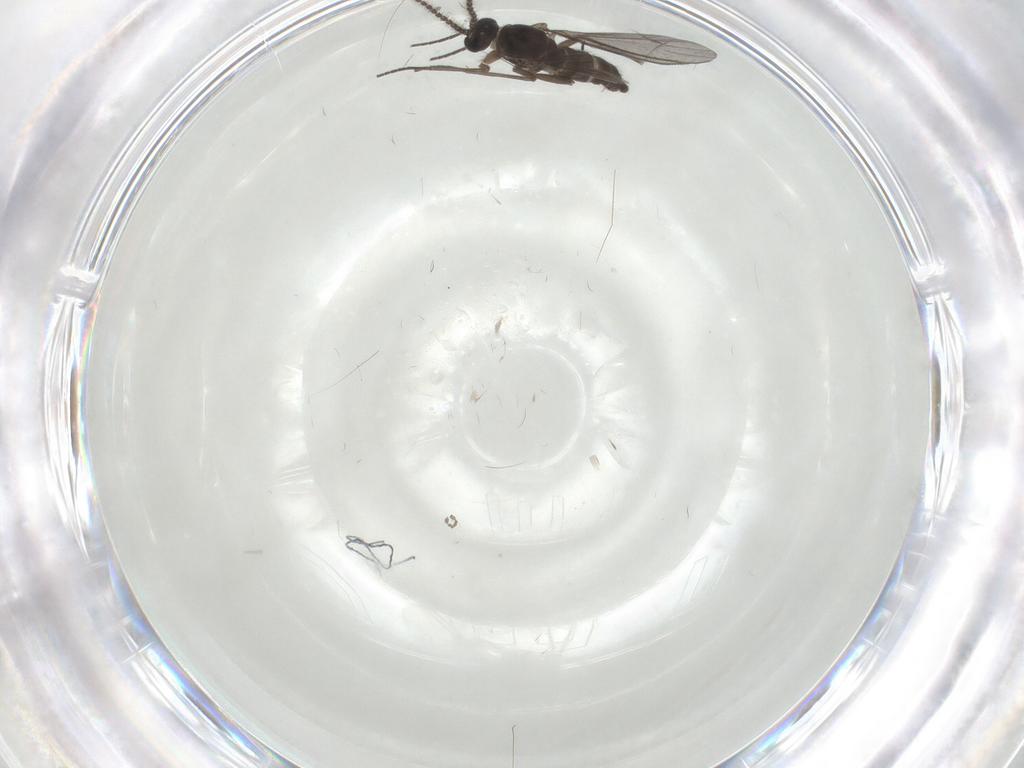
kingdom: Animalia
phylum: Arthropoda
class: Insecta
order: Diptera
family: Sciaridae
